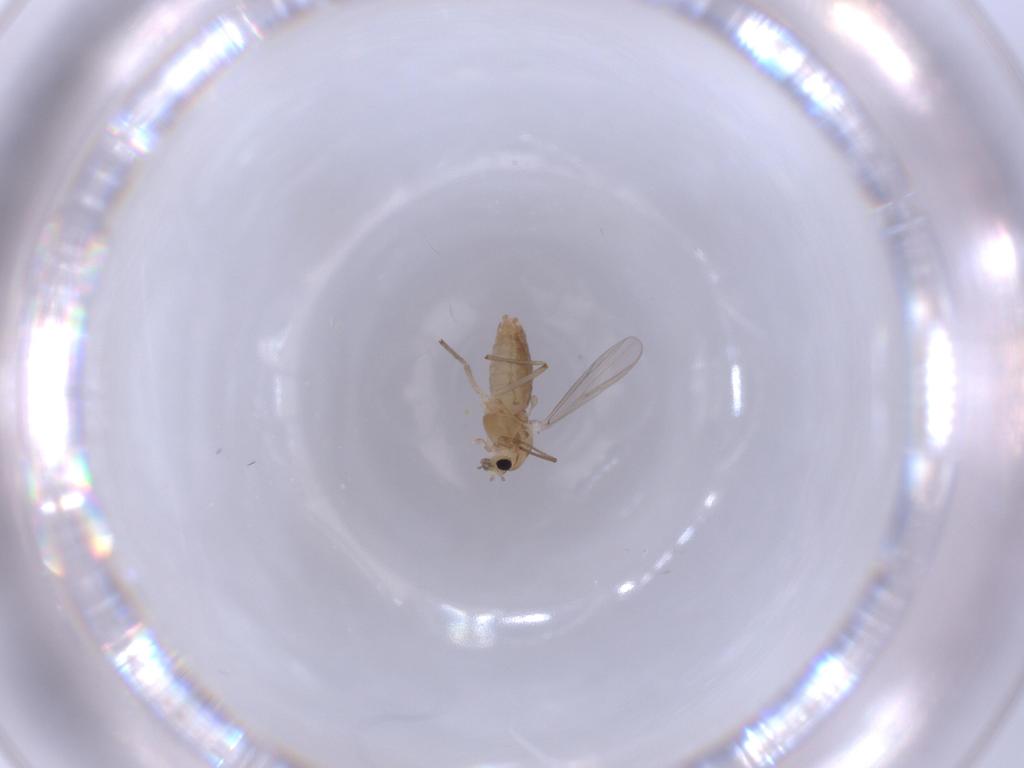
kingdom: Animalia
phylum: Arthropoda
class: Insecta
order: Diptera
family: Chironomidae
